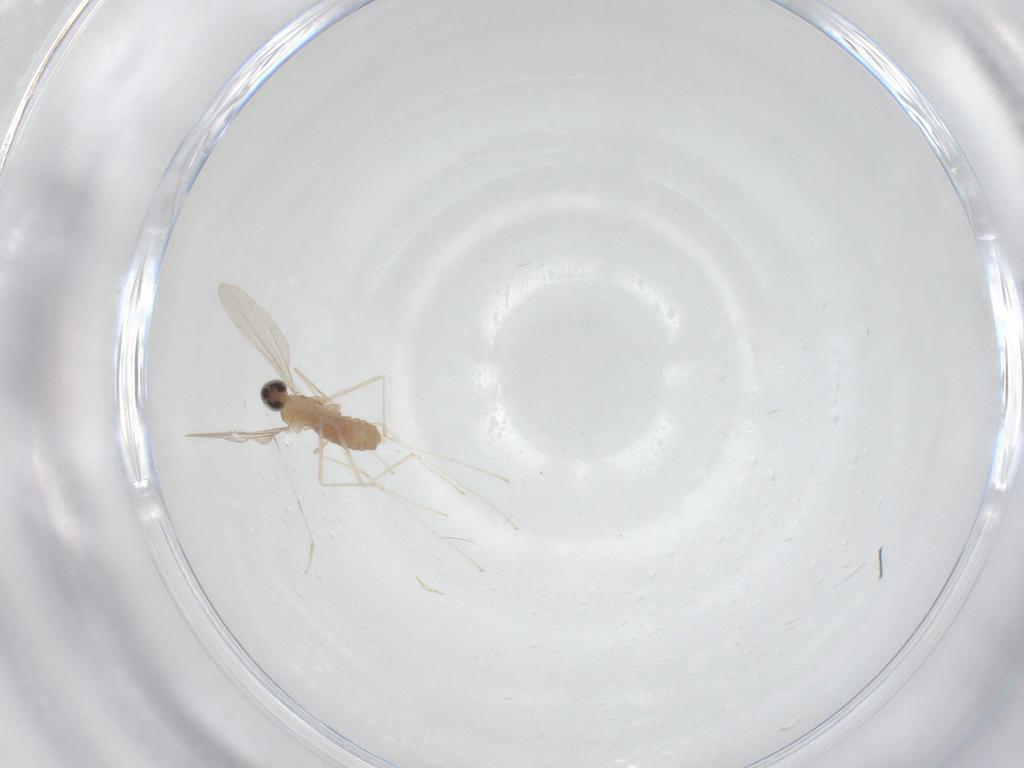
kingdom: Animalia
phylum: Arthropoda
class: Insecta
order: Diptera
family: Cecidomyiidae
